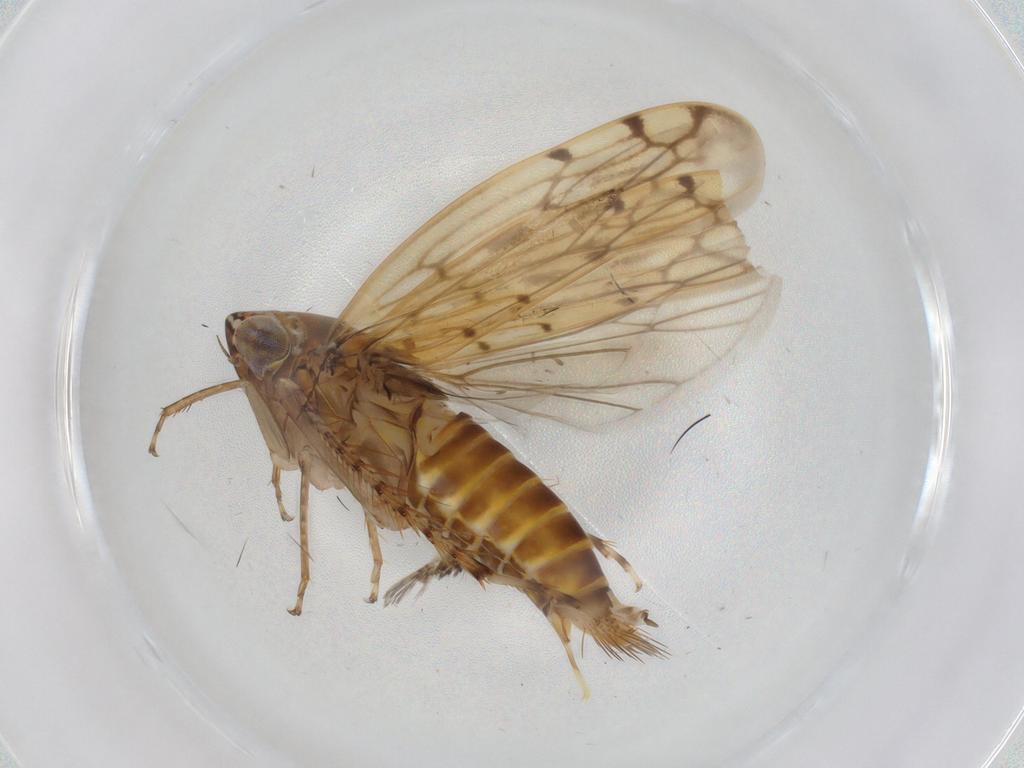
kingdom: Animalia
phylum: Arthropoda
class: Insecta
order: Hemiptera
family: Cicadellidae
